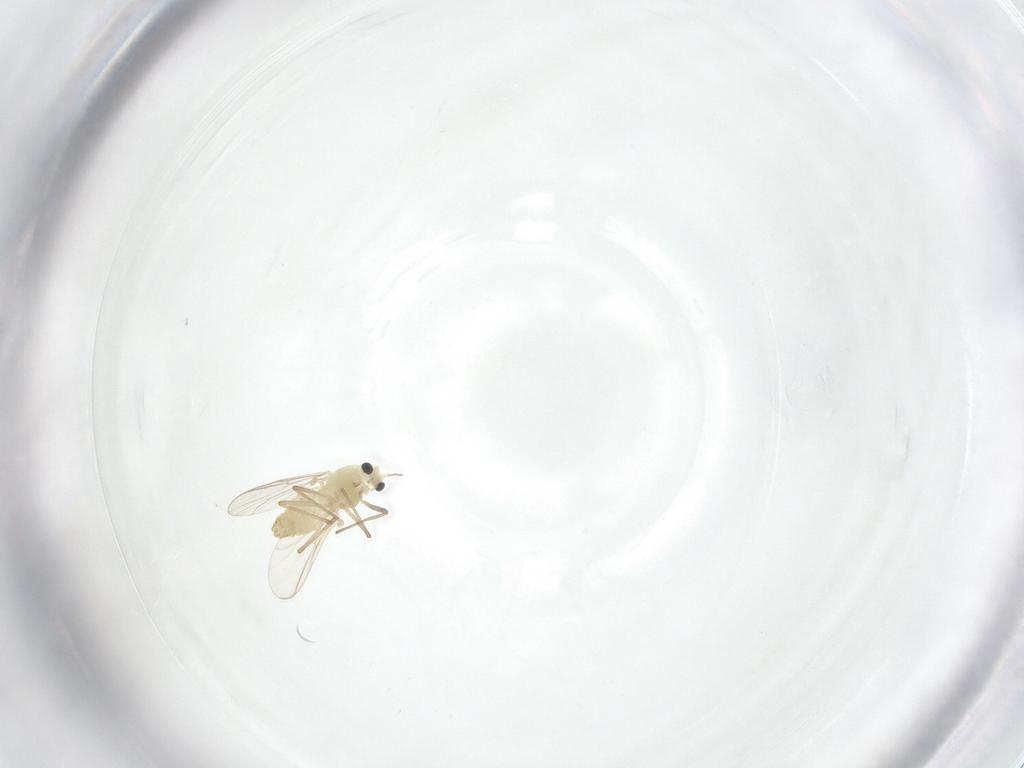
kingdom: Animalia
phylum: Arthropoda
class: Insecta
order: Diptera
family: Chironomidae
